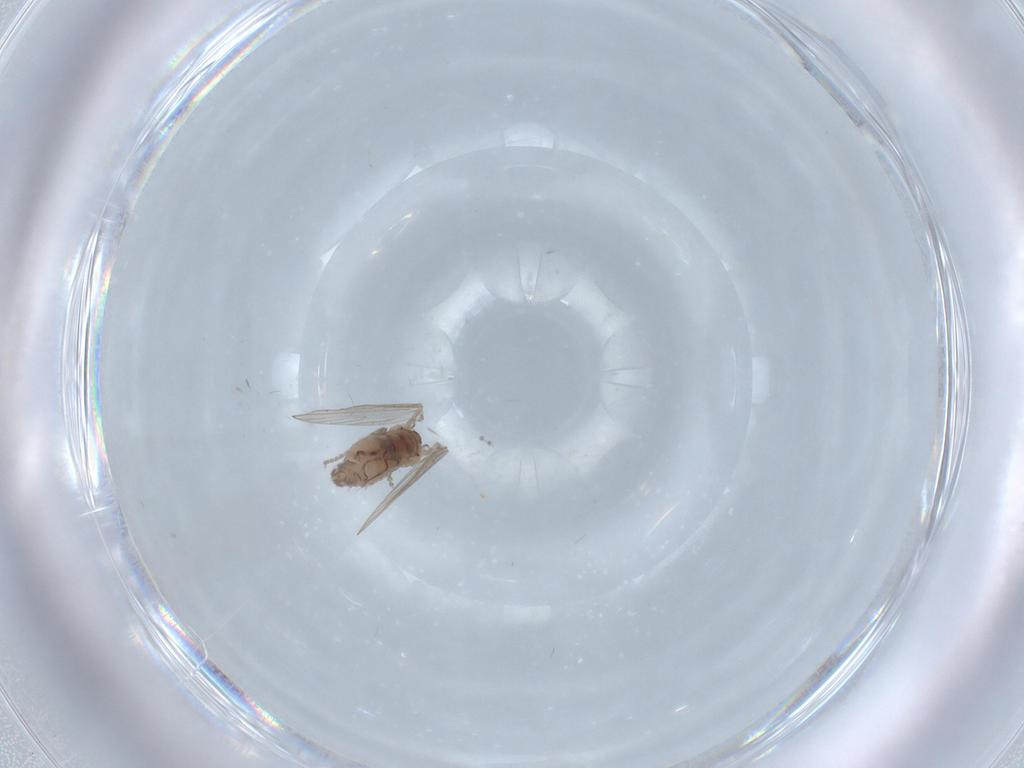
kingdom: Animalia
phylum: Arthropoda
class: Insecta
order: Diptera
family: Psychodidae
